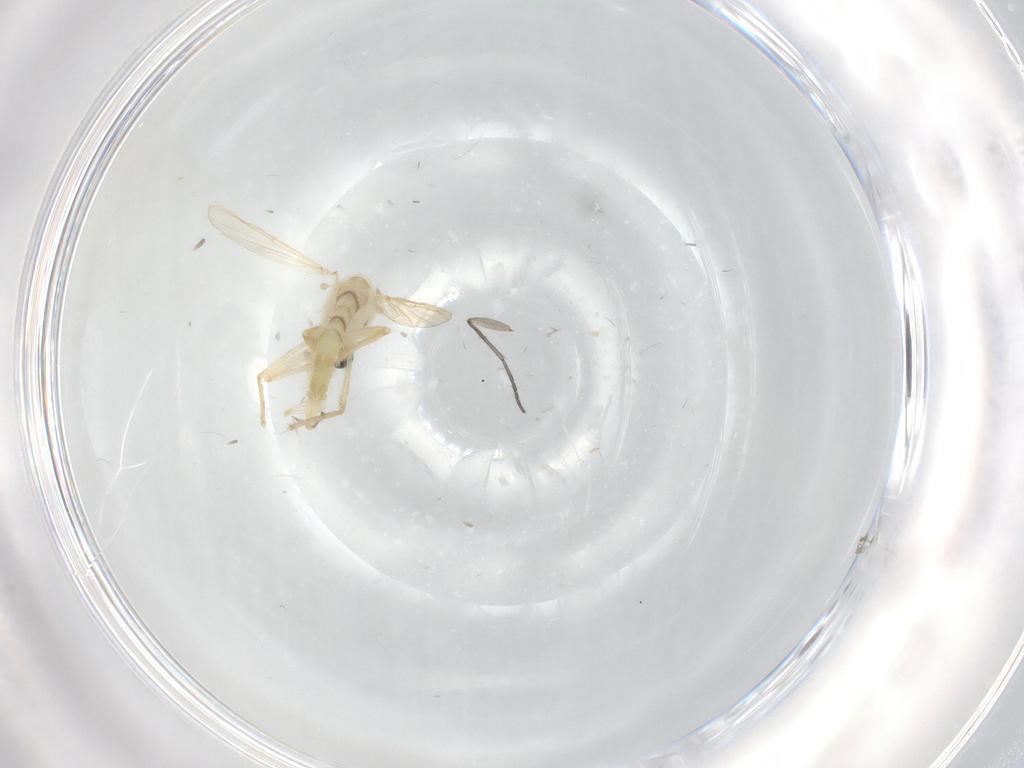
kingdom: Animalia
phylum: Arthropoda
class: Insecta
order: Diptera
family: Chironomidae
